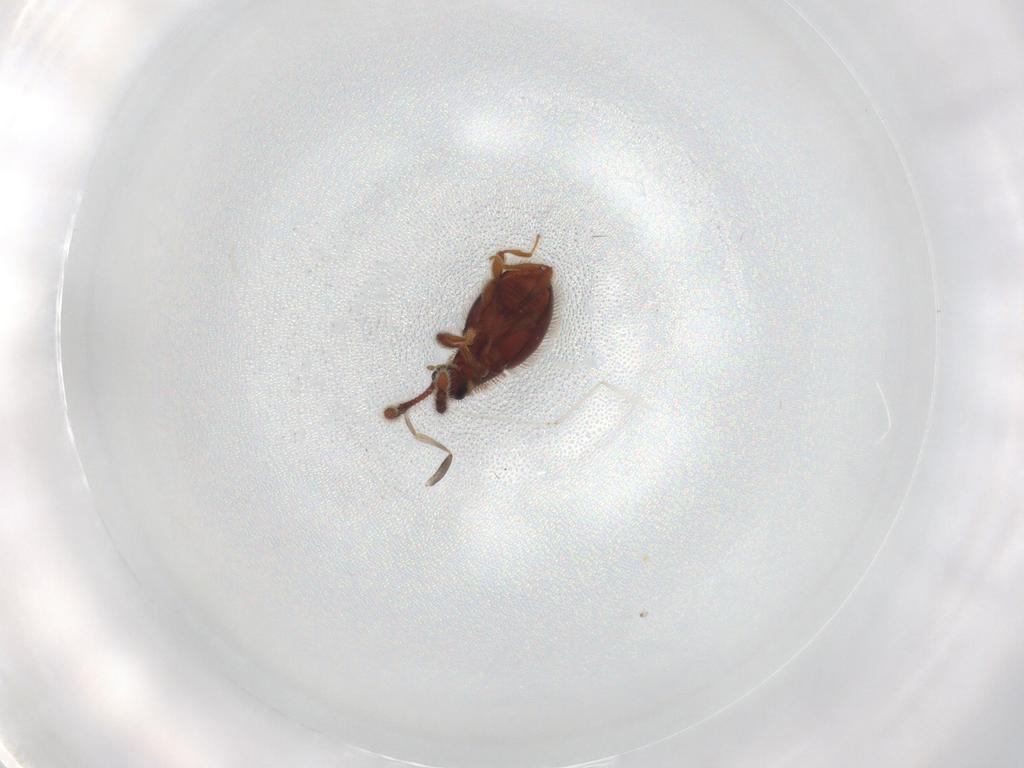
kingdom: Animalia
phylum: Arthropoda
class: Insecta
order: Coleoptera
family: Staphylinidae
